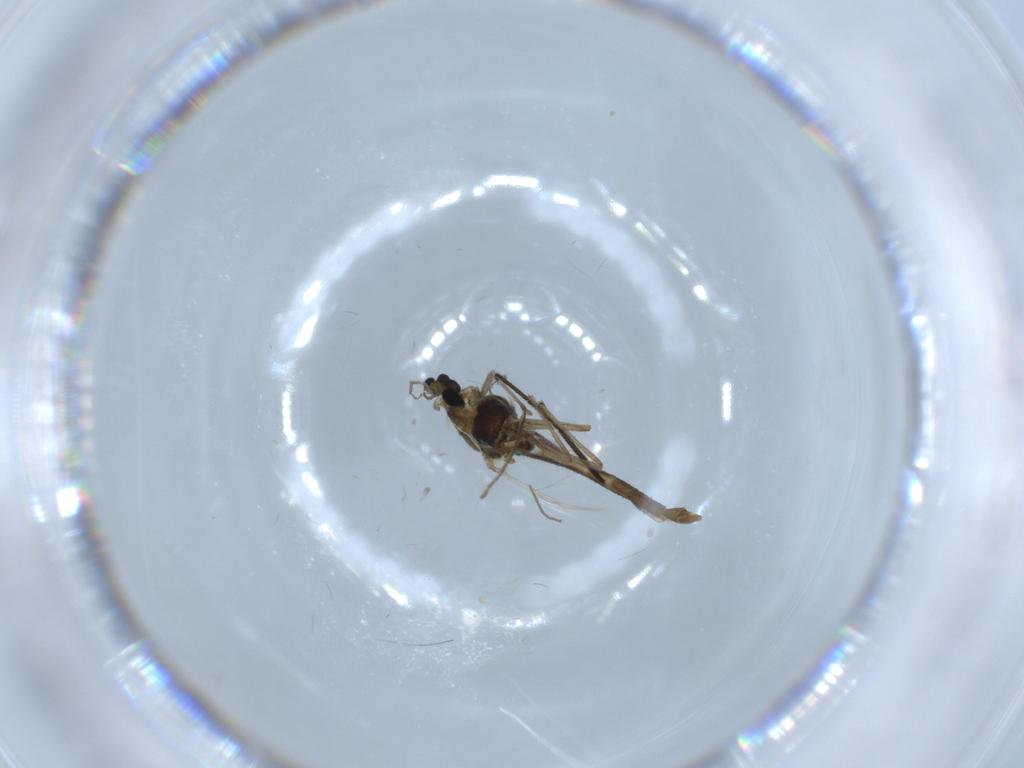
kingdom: Animalia
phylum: Arthropoda
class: Insecta
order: Diptera
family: Cecidomyiidae
